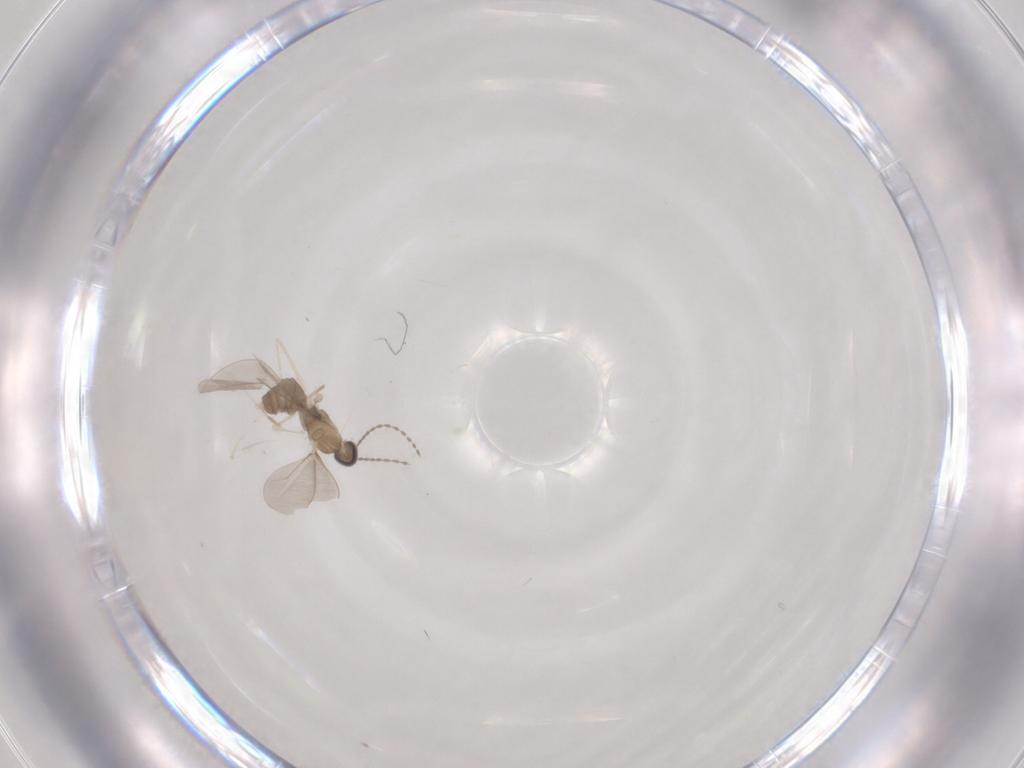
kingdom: Animalia
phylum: Arthropoda
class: Insecta
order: Diptera
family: Cecidomyiidae
